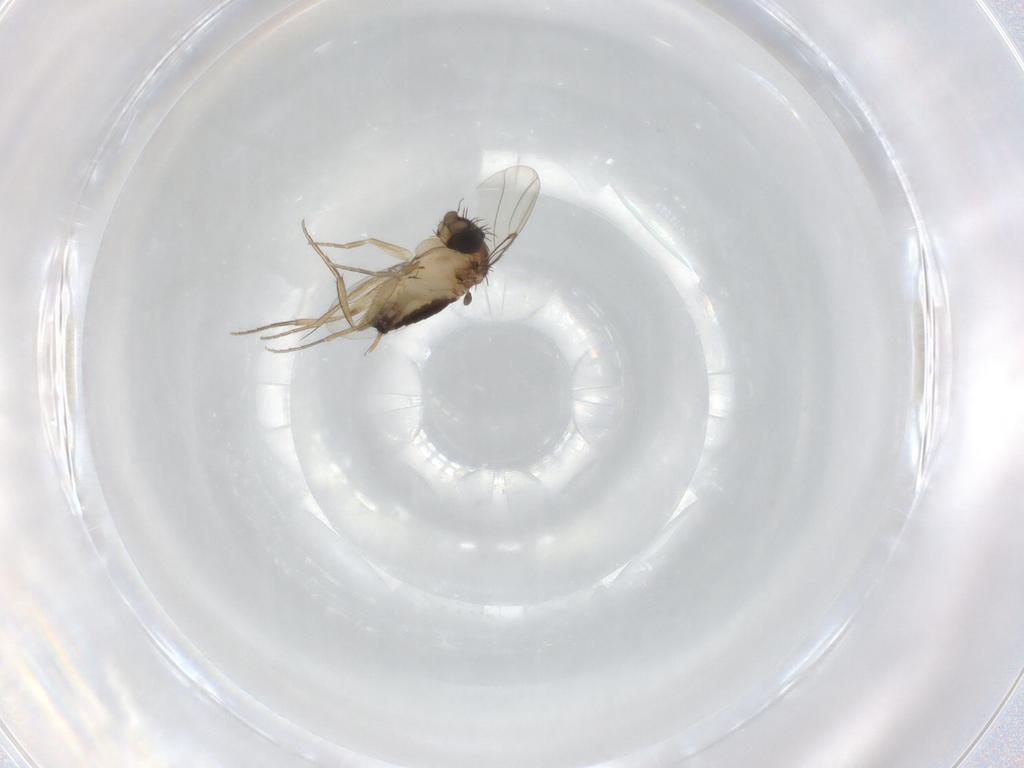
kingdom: Animalia
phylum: Arthropoda
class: Insecta
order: Diptera
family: Phoridae
